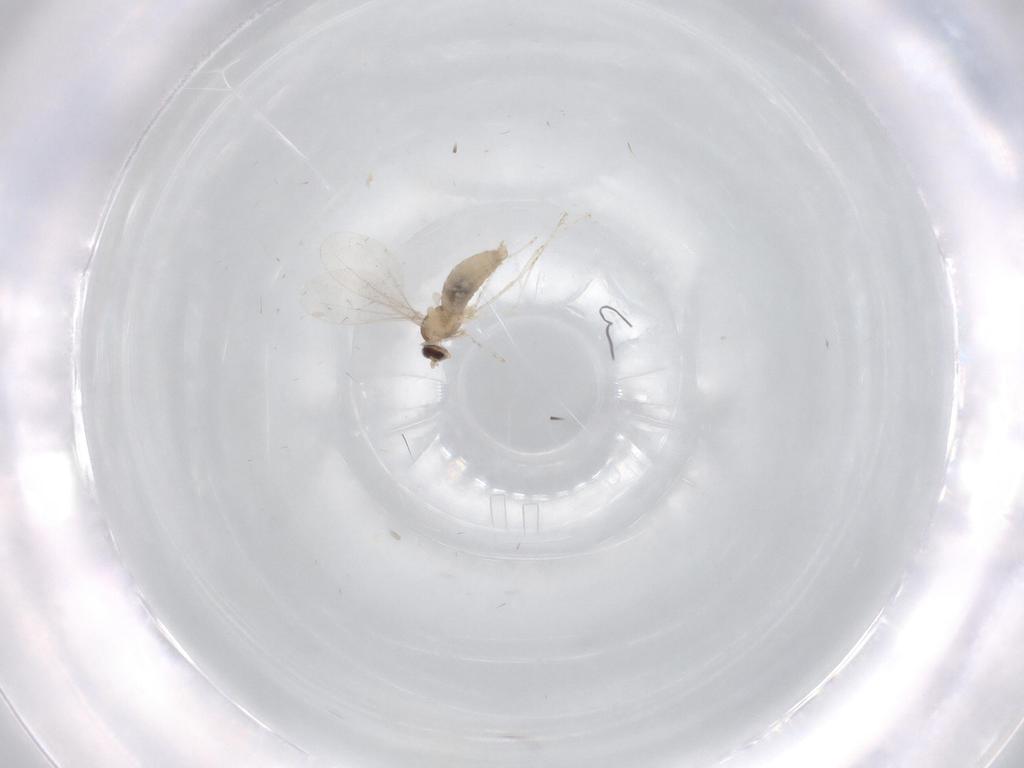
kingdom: Animalia
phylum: Arthropoda
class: Insecta
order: Diptera
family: Cecidomyiidae
